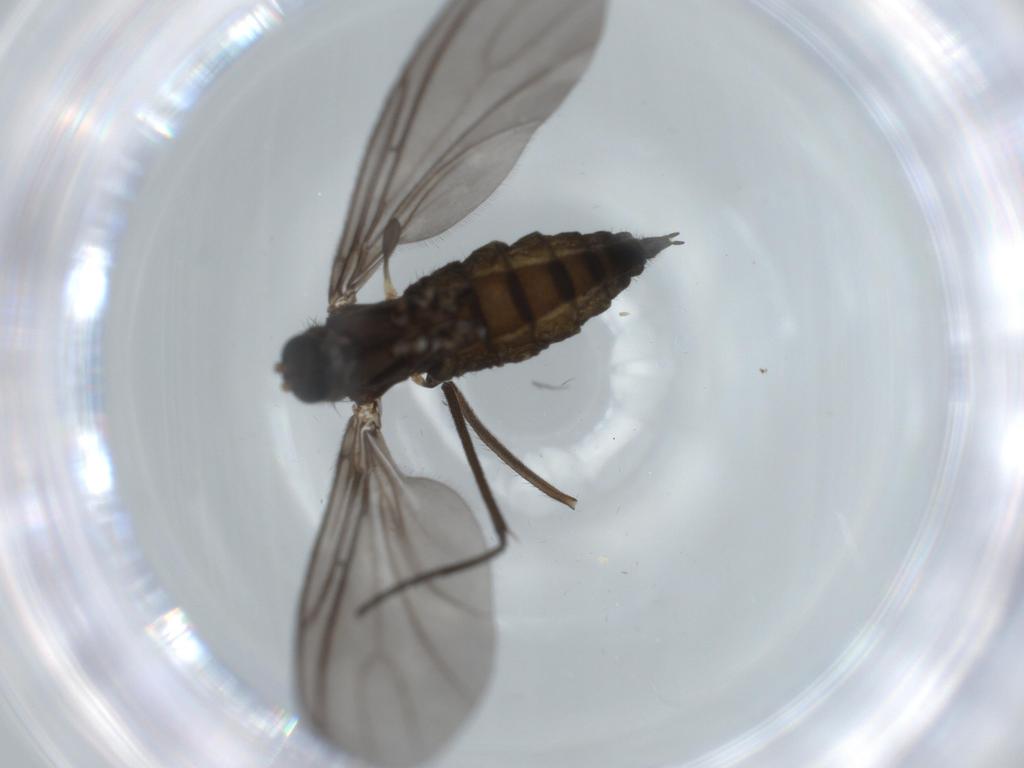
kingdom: Animalia
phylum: Arthropoda
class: Insecta
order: Diptera
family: Sciaridae
